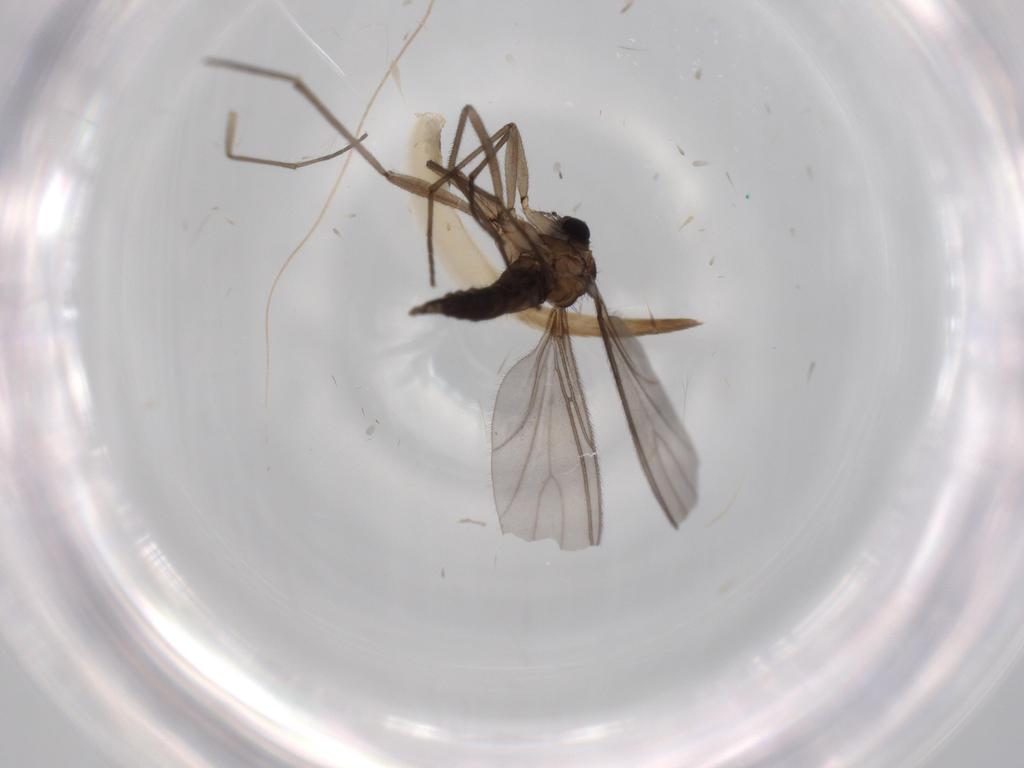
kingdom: Animalia
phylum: Arthropoda
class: Insecta
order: Diptera
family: Sciaridae
